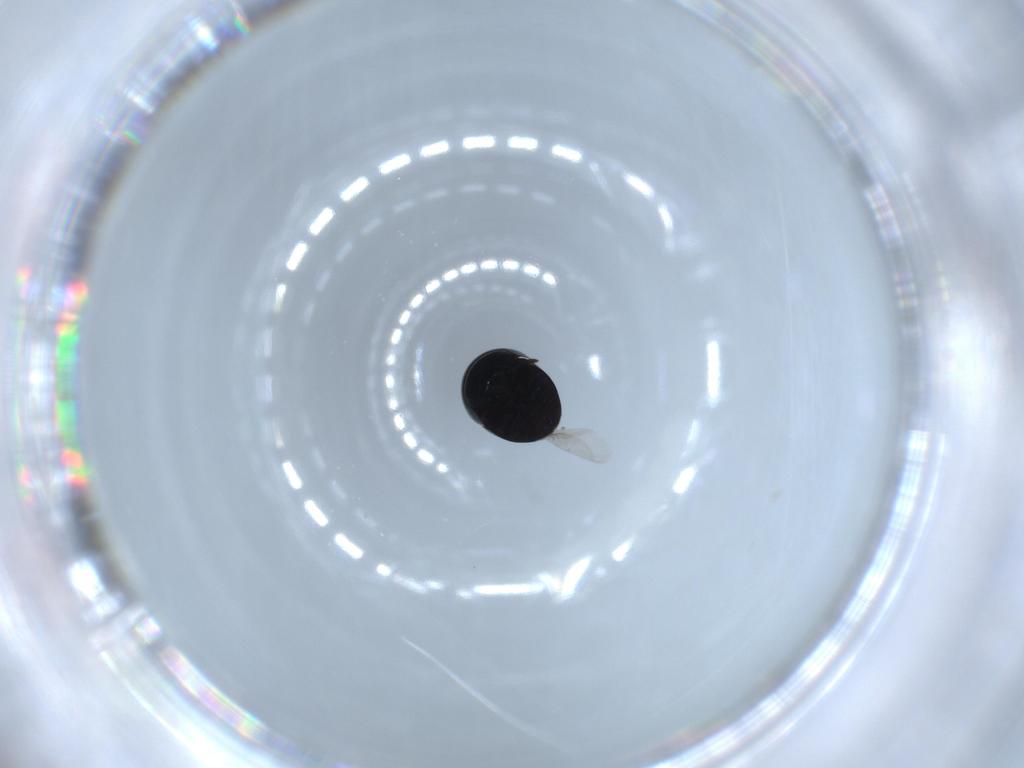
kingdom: Animalia
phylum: Arthropoda
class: Insecta
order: Coleoptera
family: Cybocephalidae
